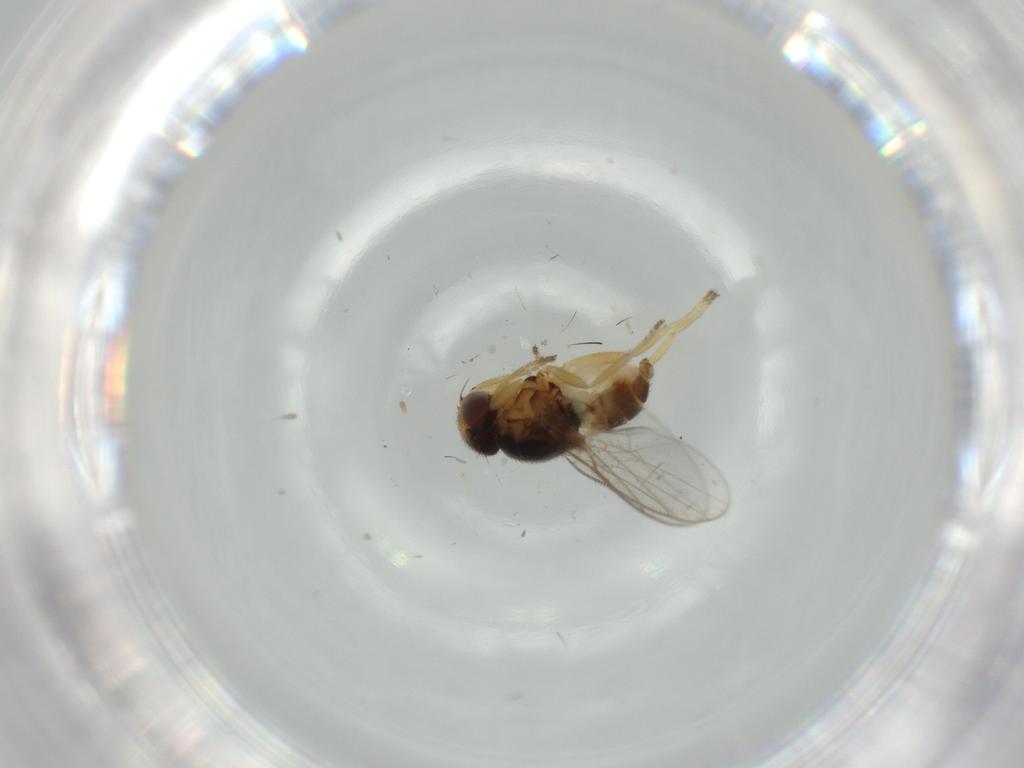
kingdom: Animalia
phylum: Arthropoda
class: Insecta
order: Diptera
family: Chloropidae
